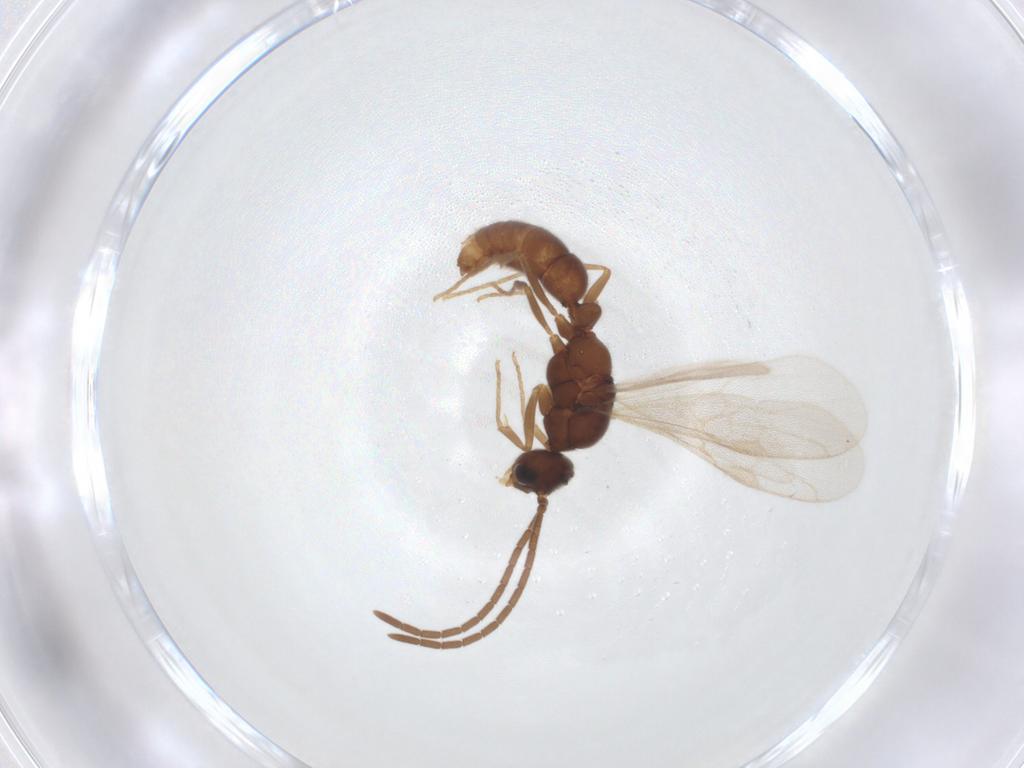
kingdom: Animalia
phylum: Arthropoda
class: Insecta
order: Hymenoptera
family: Formicidae
